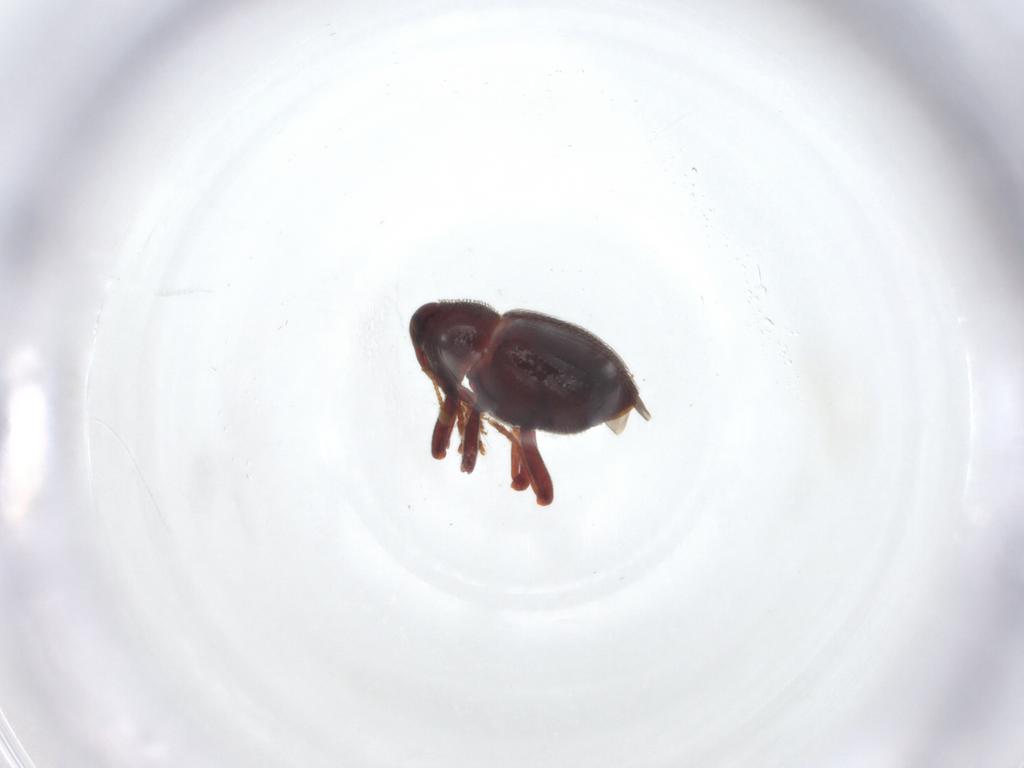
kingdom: Animalia
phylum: Arthropoda
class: Insecta
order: Coleoptera
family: Curculionidae
